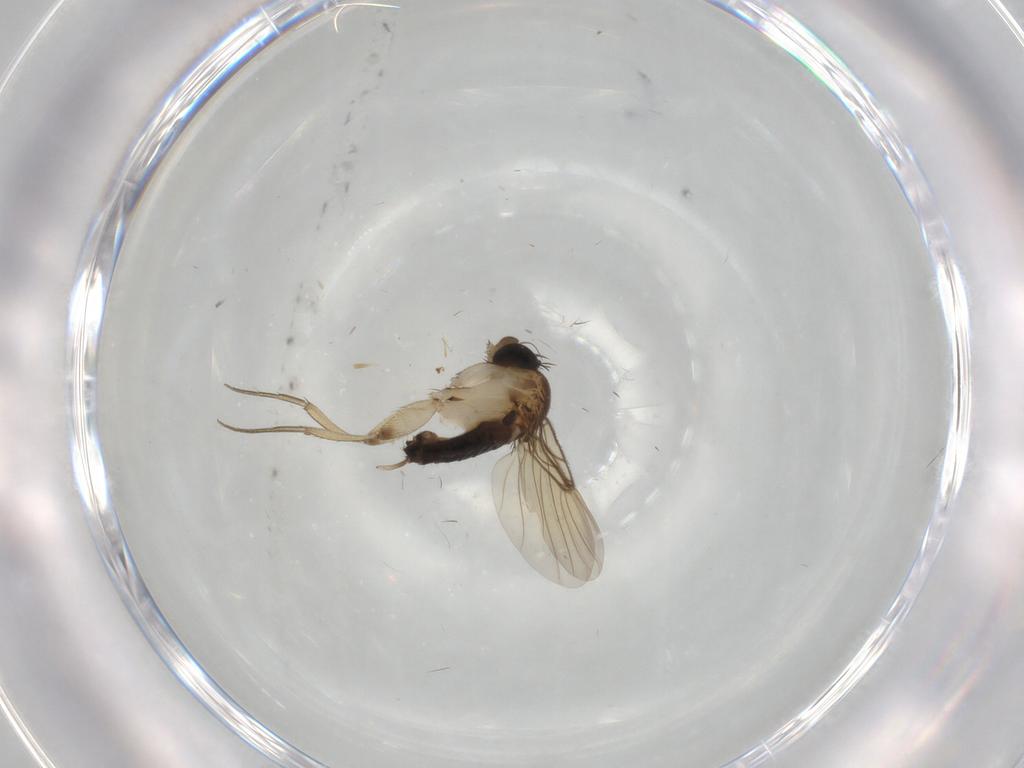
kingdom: Animalia
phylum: Arthropoda
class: Insecta
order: Diptera
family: Phoridae
